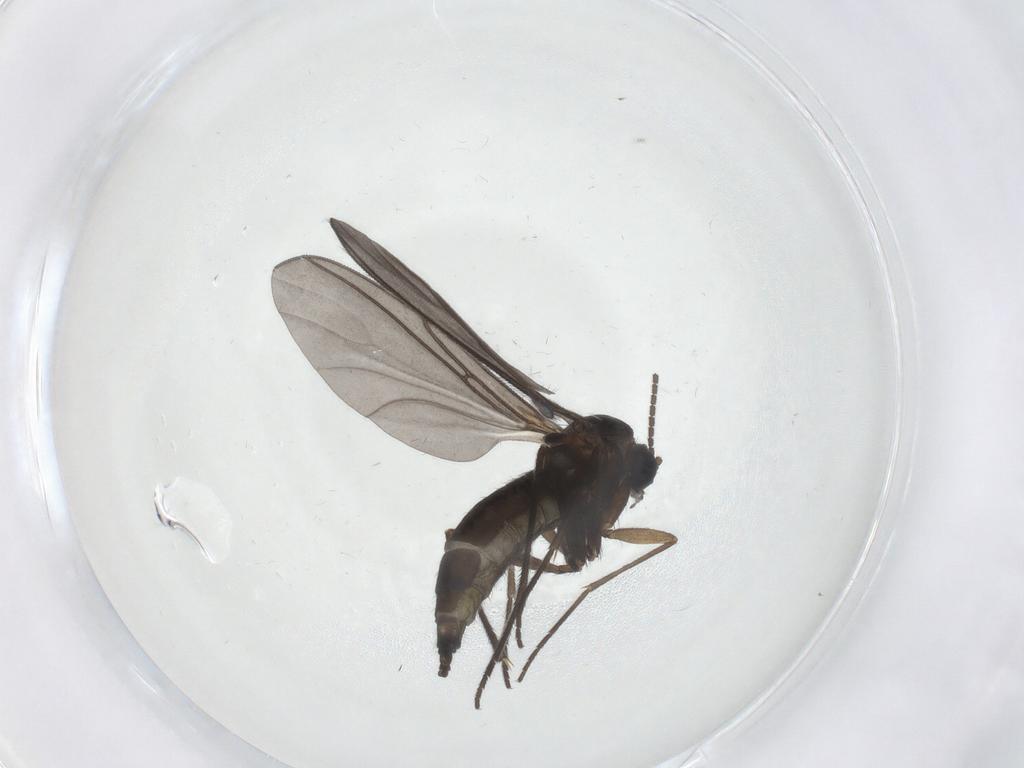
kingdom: Animalia
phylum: Arthropoda
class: Insecta
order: Diptera
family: Sciaridae
